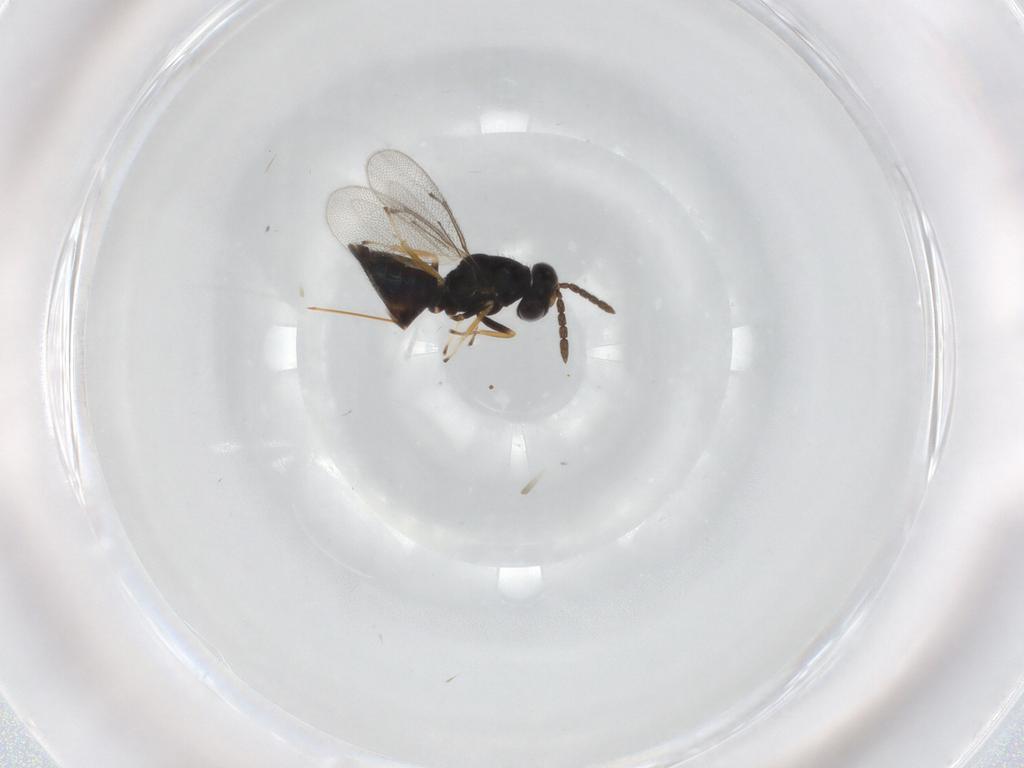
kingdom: Animalia
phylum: Arthropoda
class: Insecta
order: Hymenoptera
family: Eulophidae
